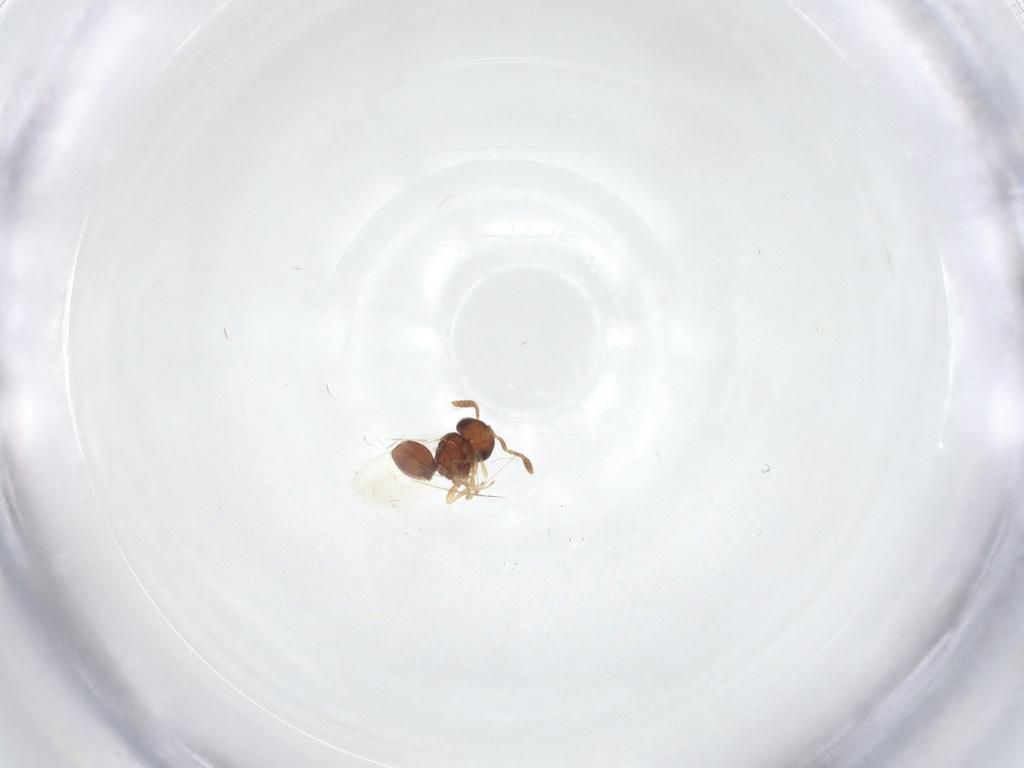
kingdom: Animalia
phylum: Arthropoda
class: Insecta
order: Hymenoptera
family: Scelionidae
